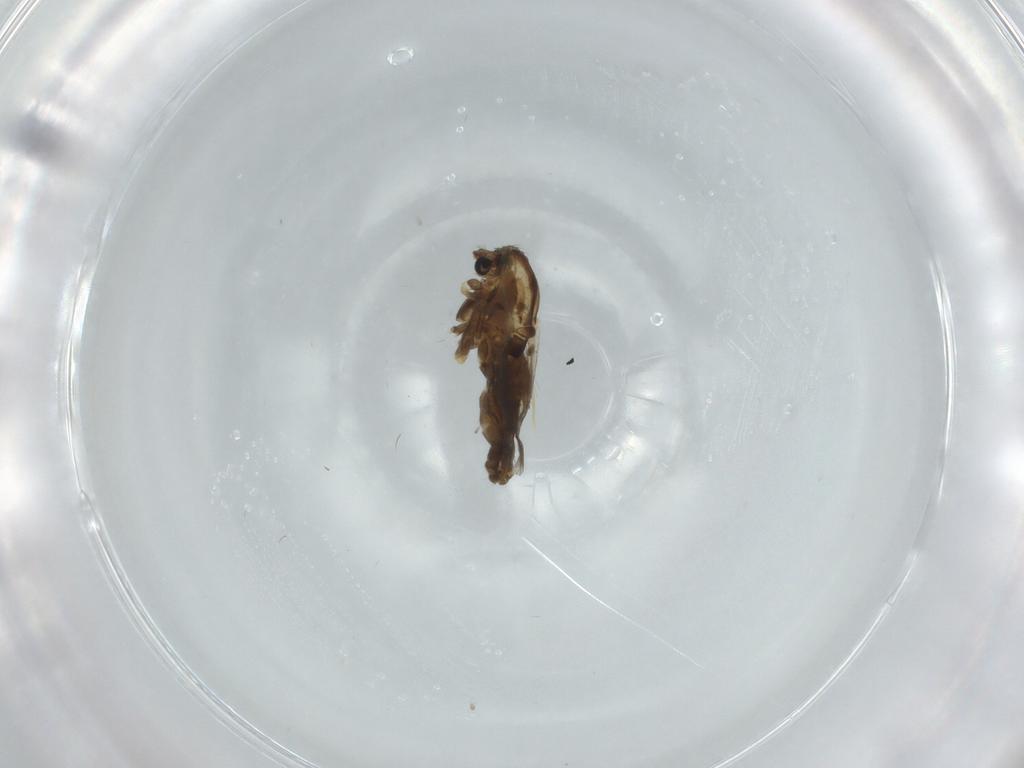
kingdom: Animalia
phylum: Arthropoda
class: Insecta
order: Diptera
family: Chironomidae
